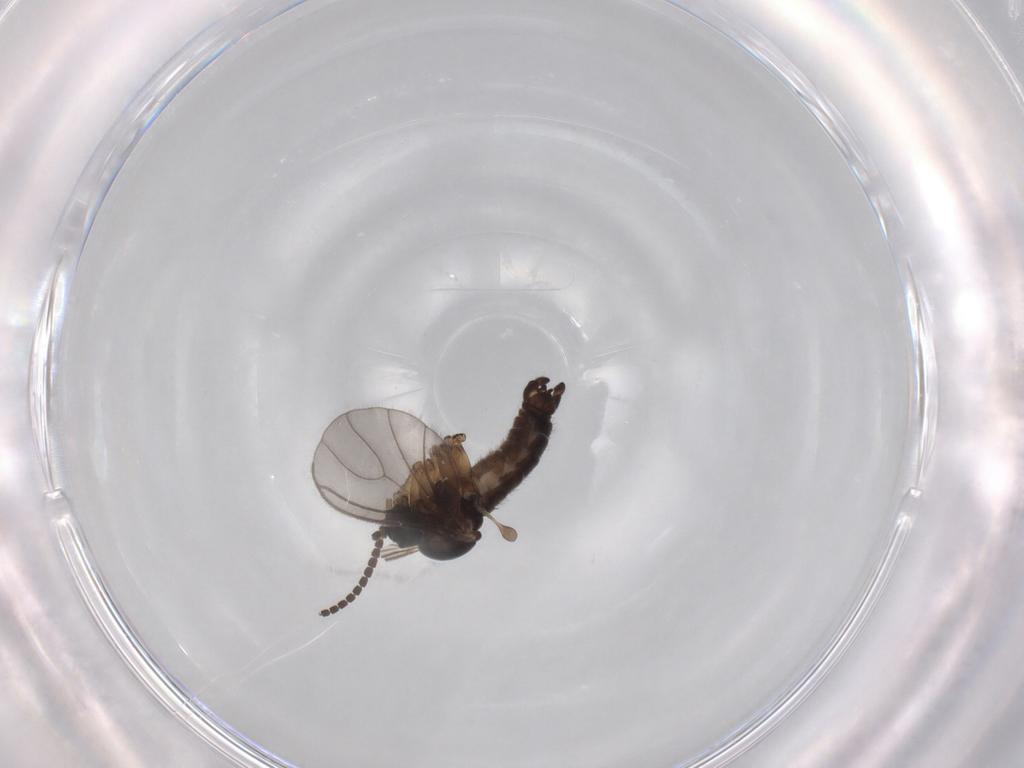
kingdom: Animalia
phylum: Arthropoda
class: Insecta
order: Diptera
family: Sciaridae
